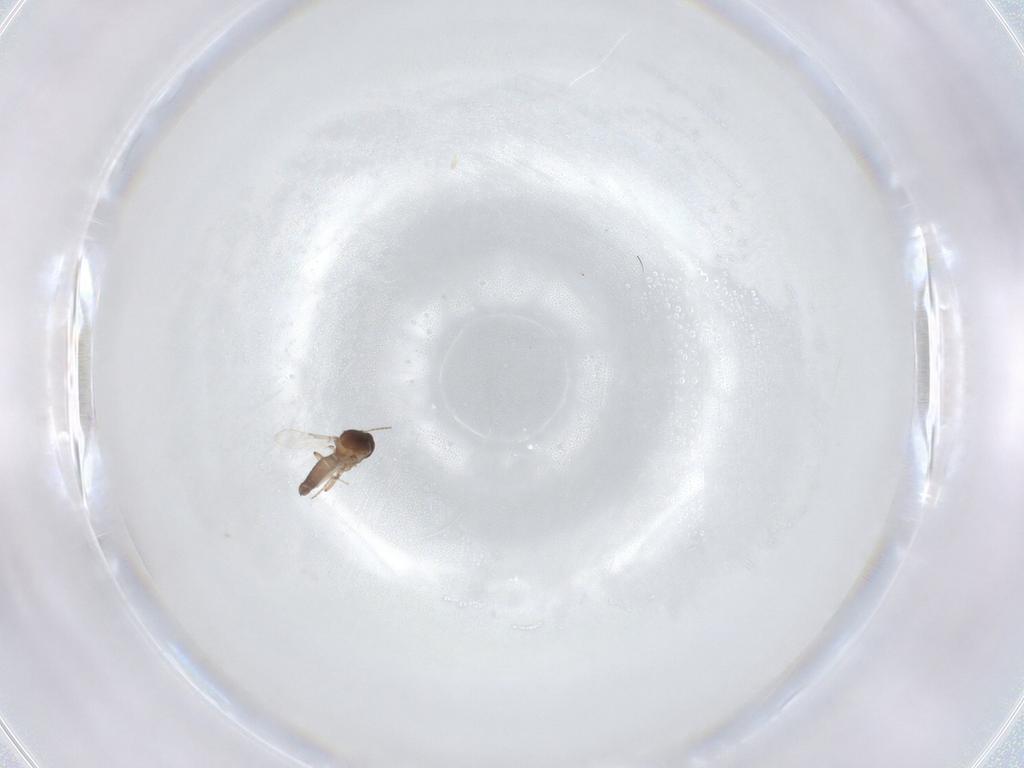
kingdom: Animalia
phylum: Arthropoda
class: Insecta
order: Diptera
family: Ceratopogonidae
